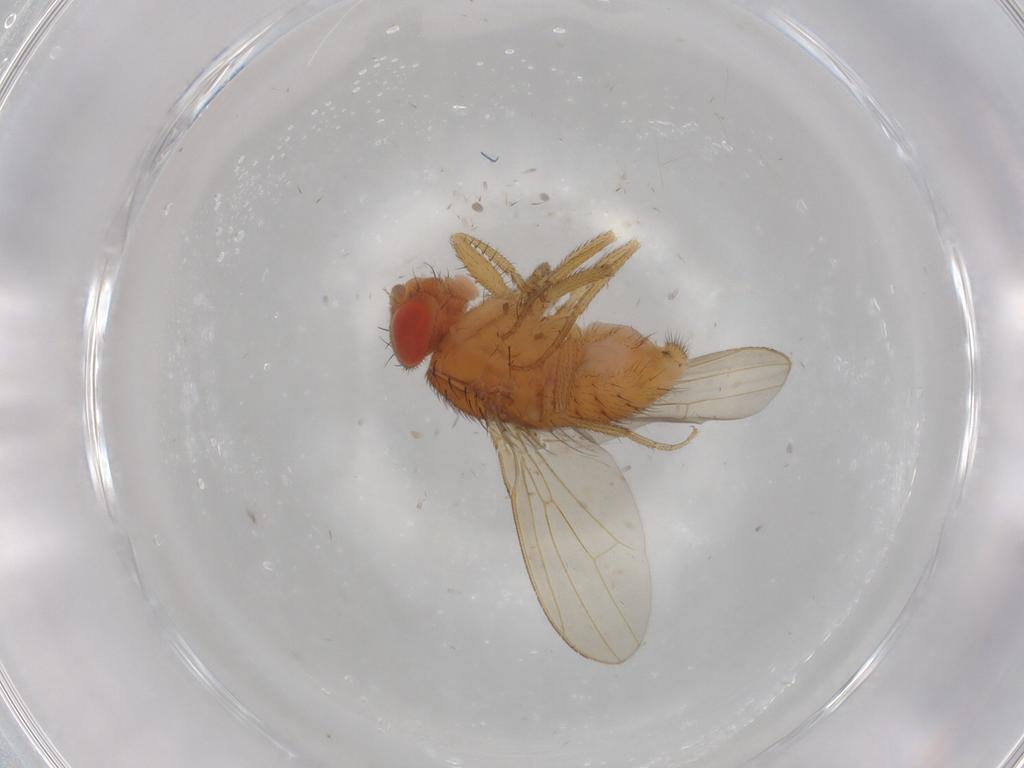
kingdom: Animalia
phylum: Arthropoda
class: Insecta
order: Diptera
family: Drosophilidae
